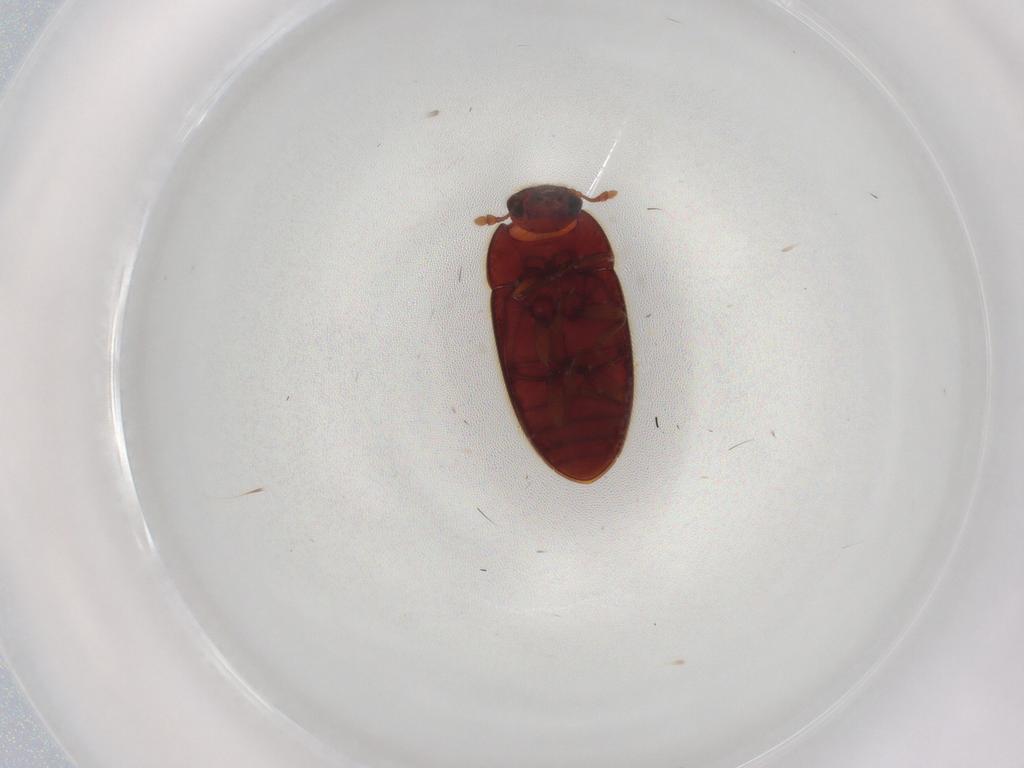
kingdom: Animalia
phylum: Arthropoda
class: Insecta
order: Coleoptera
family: Biphyllidae
